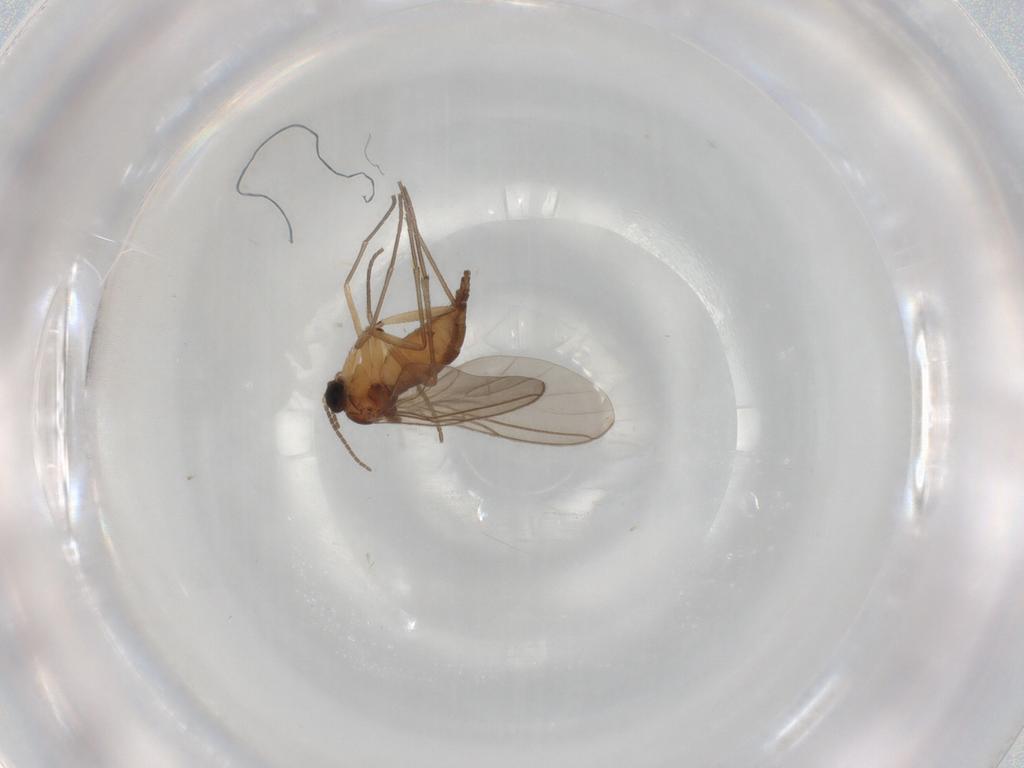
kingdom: Animalia
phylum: Arthropoda
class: Insecta
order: Diptera
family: Sciaridae
